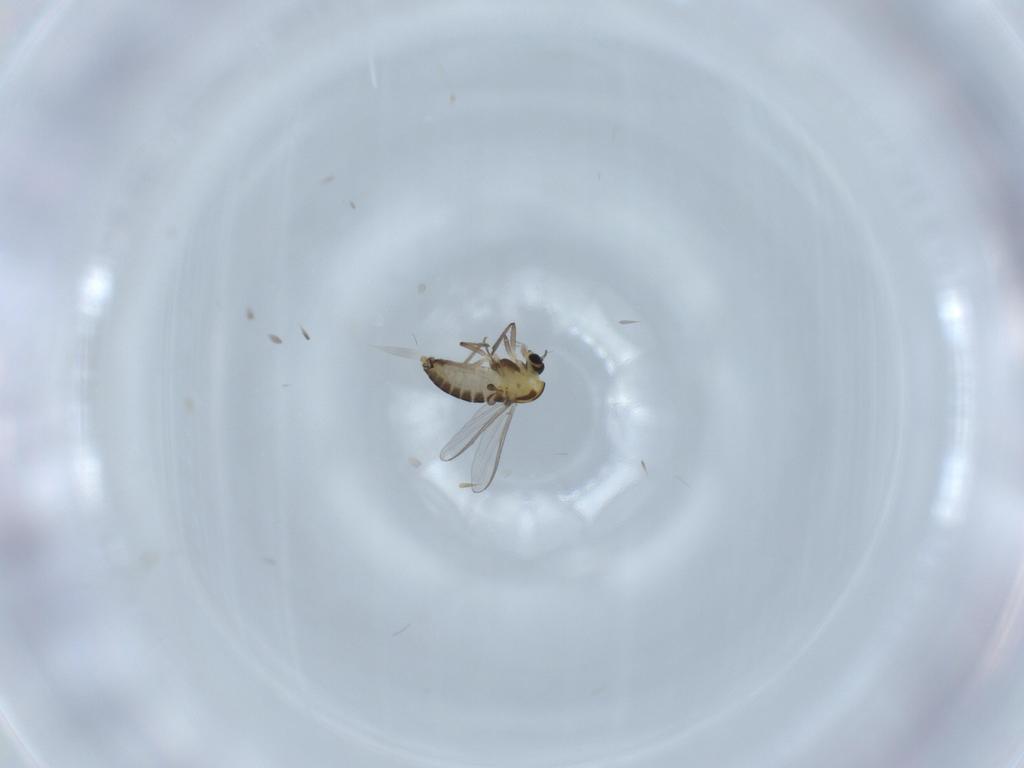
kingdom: Animalia
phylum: Arthropoda
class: Insecta
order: Diptera
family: Chironomidae
